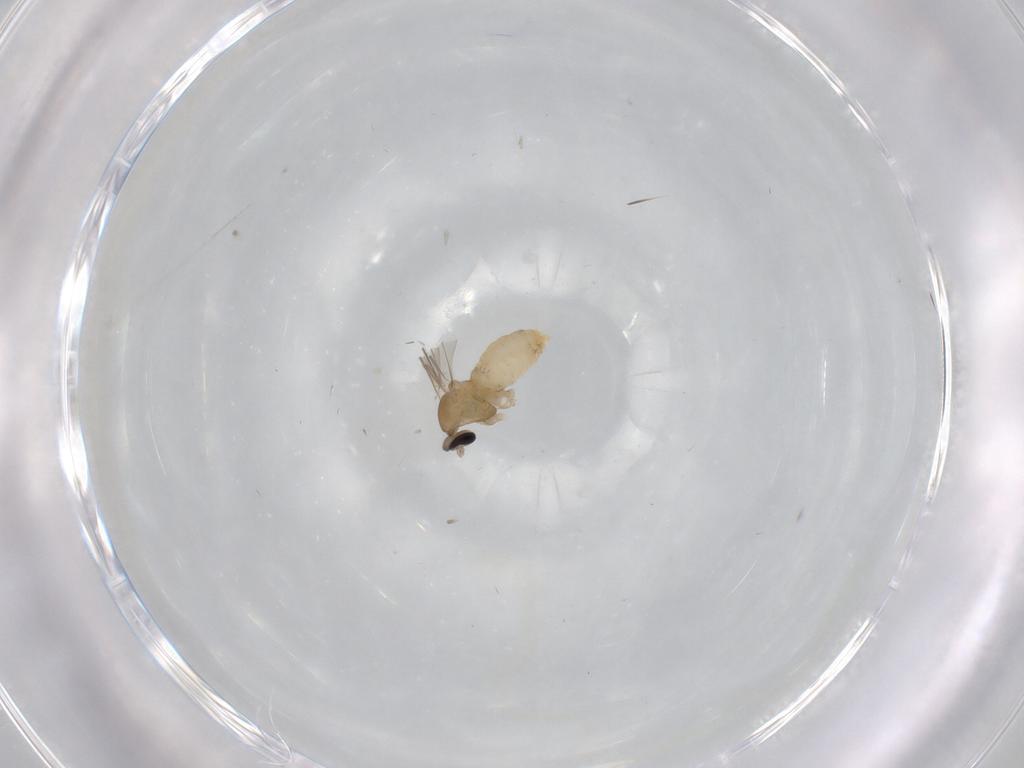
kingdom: Animalia
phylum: Arthropoda
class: Insecta
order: Diptera
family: Cecidomyiidae
